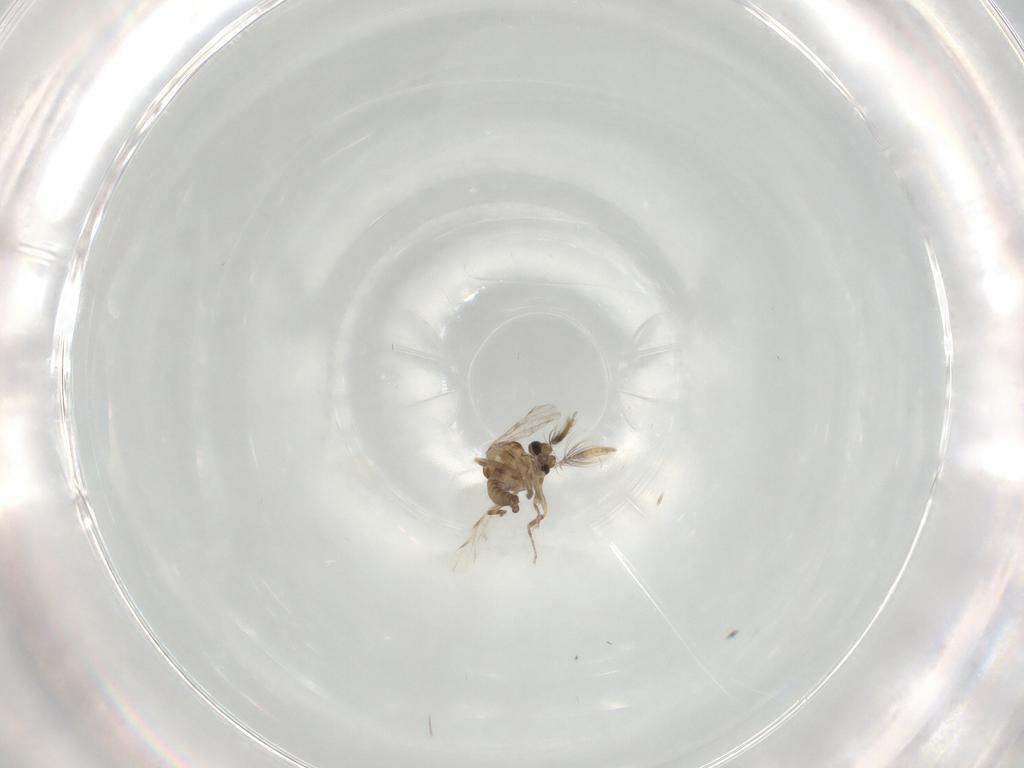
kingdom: Animalia
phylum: Arthropoda
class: Insecta
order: Diptera
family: Ceratopogonidae
